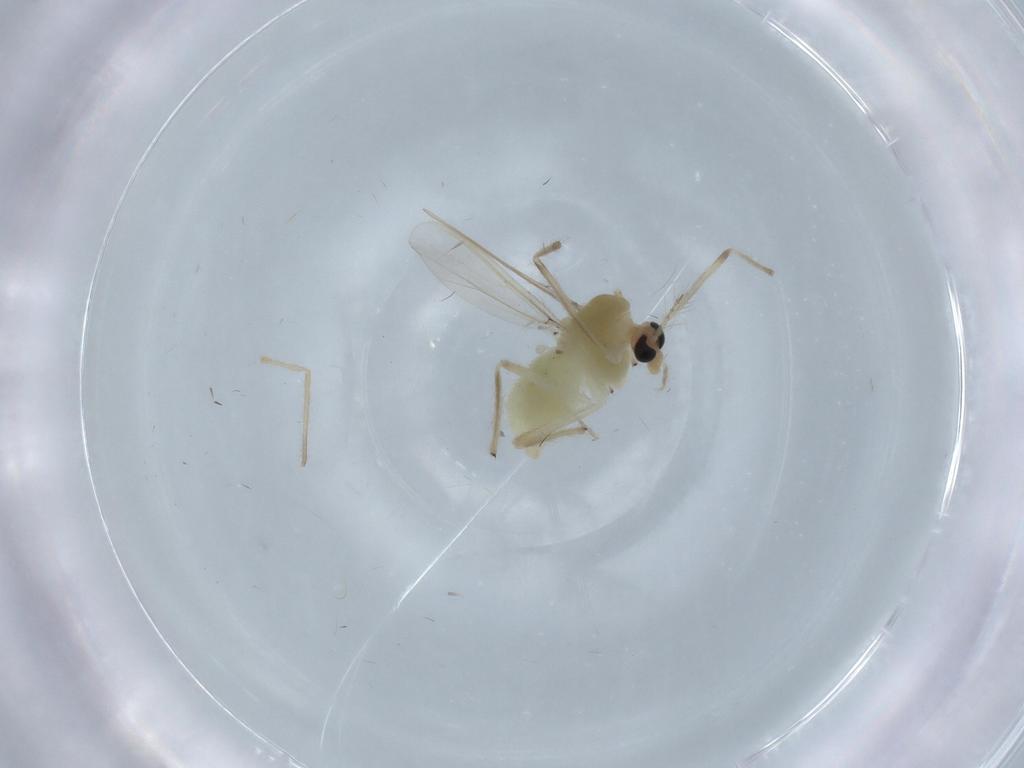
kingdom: Animalia
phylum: Arthropoda
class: Insecta
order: Diptera
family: Chironomidae
